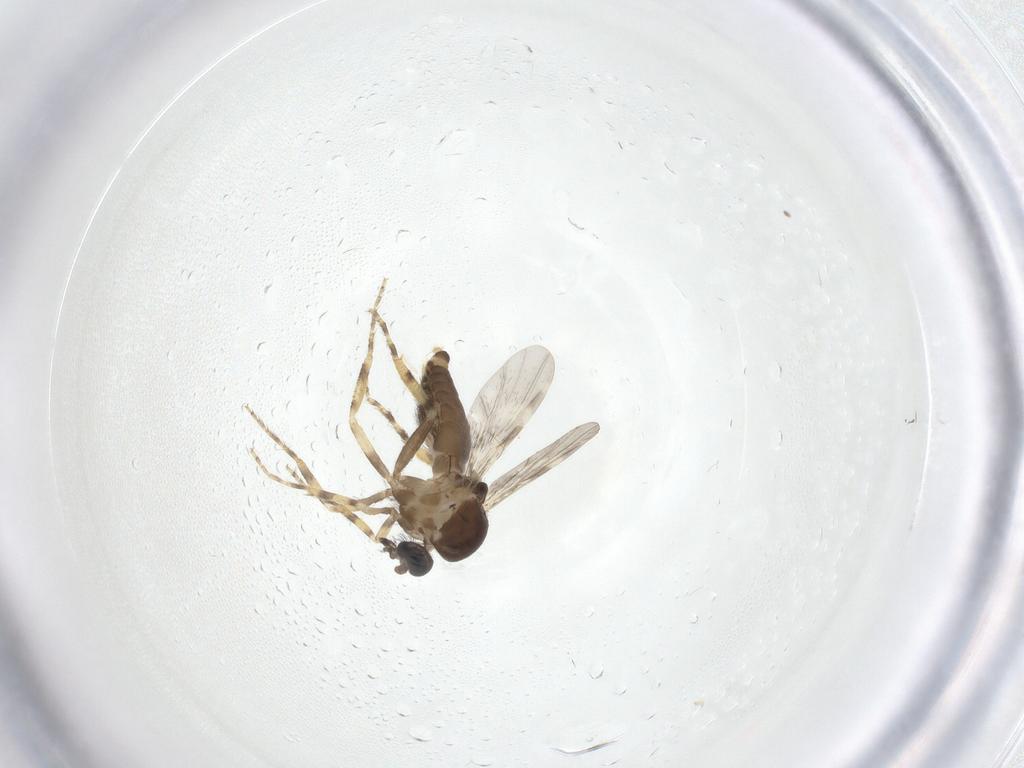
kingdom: Animalia
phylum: Arthropoda
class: Insecta
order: Diptera
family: Ceratopogonidae
